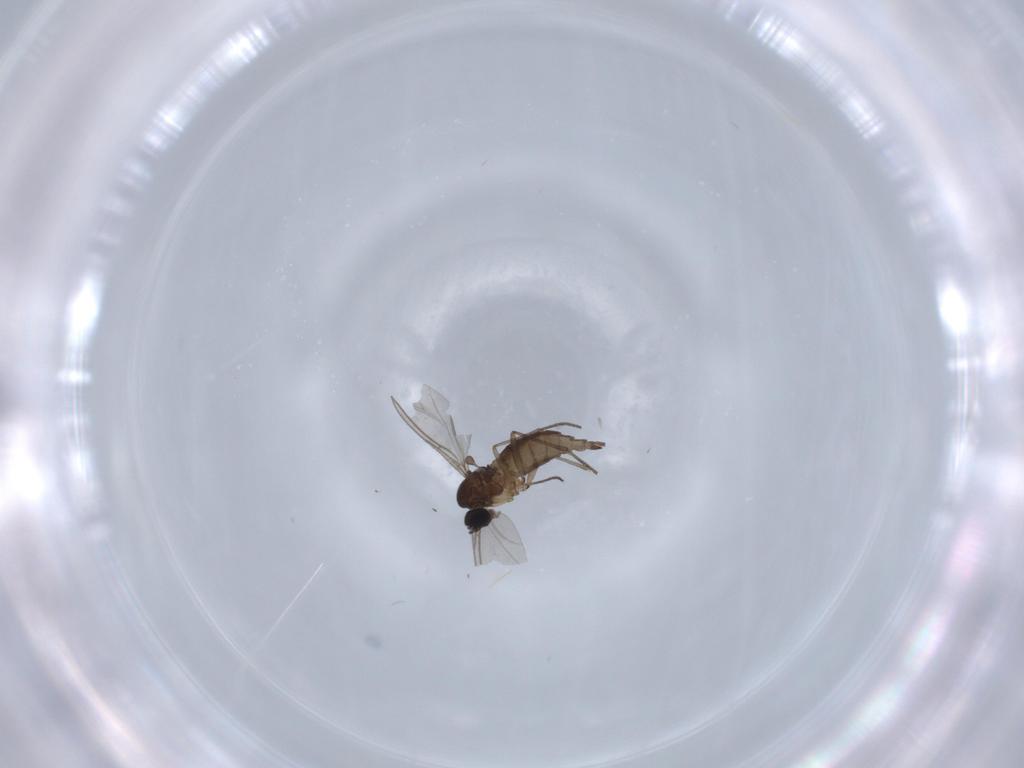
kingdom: Animalia
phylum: Arthropoda
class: Insecta
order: Diptera
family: Sciaridae
